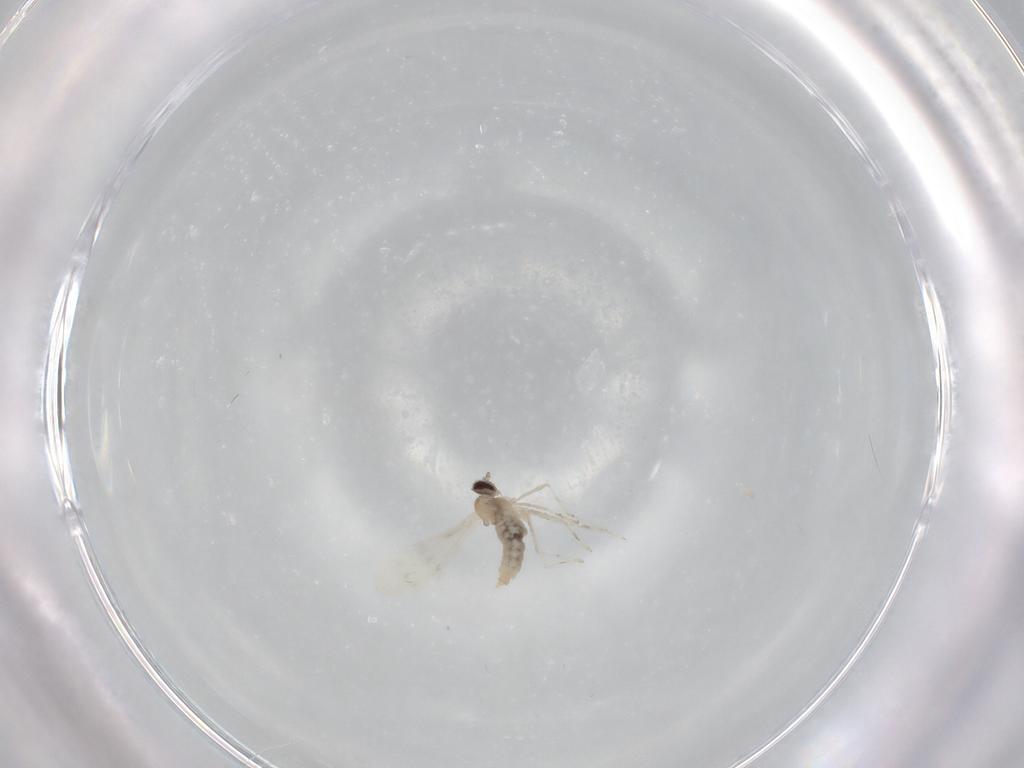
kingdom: Animalia
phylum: Arthropoda
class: Insecta
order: Diptera
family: Cecidomyiidae
